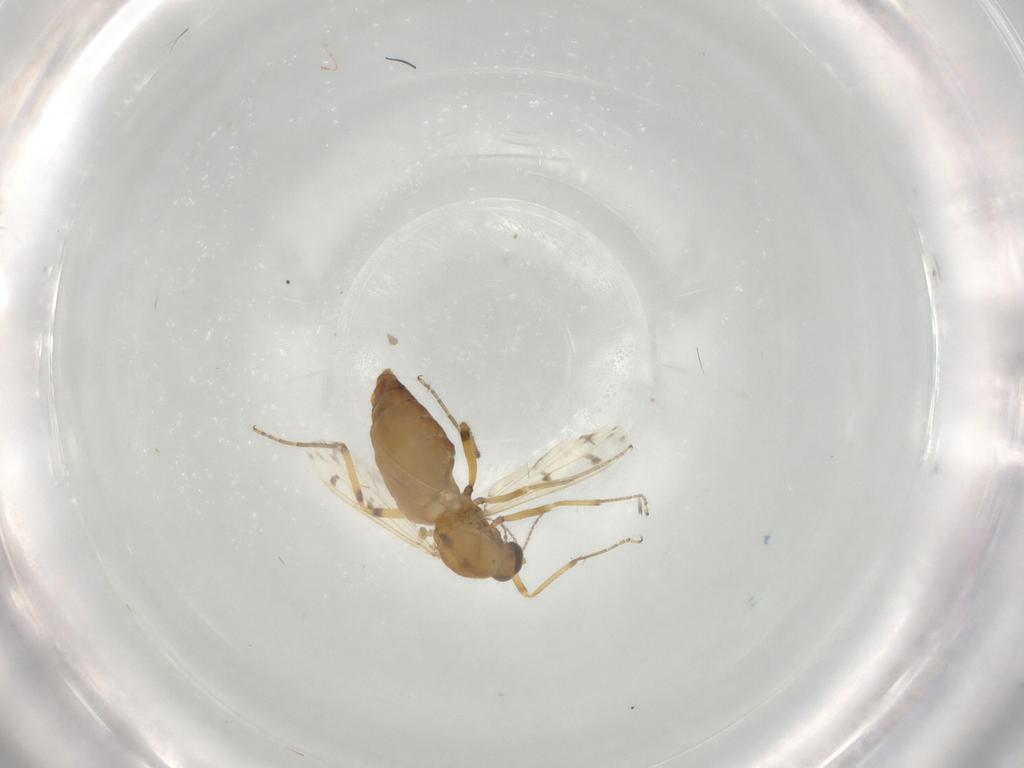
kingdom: Animalia
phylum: Arthropoda
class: Insecta
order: Diptera
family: Ceratopogonidae
